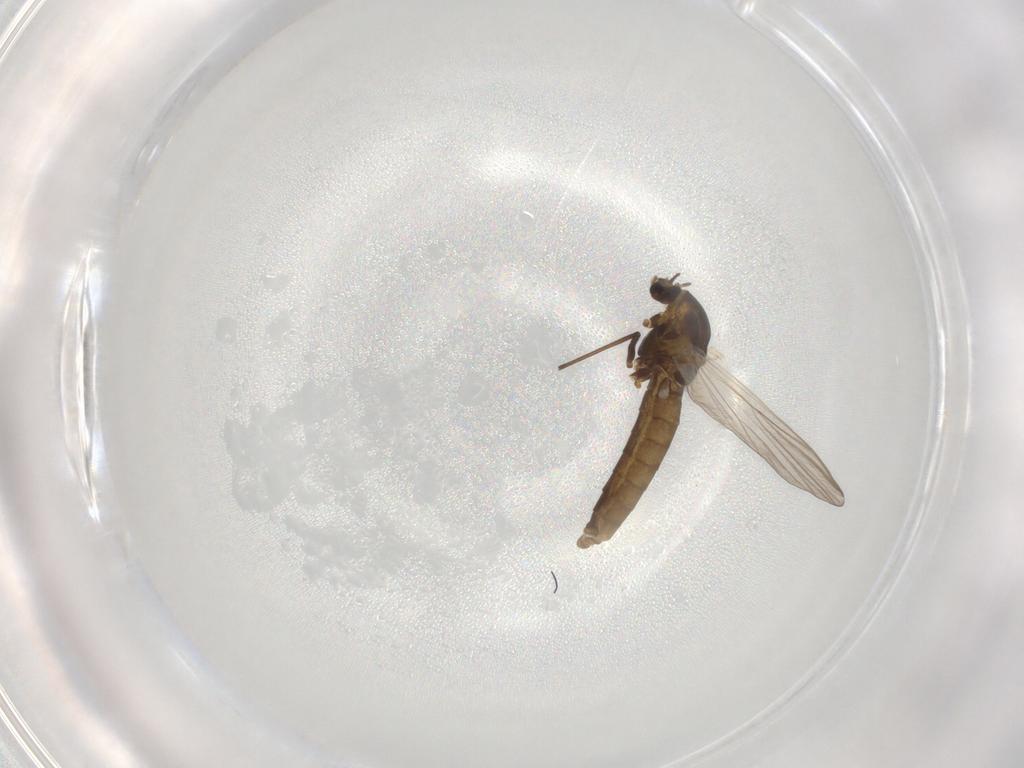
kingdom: Animalia
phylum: Arthropoda
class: Insecta
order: Diptera
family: Chironomidae
